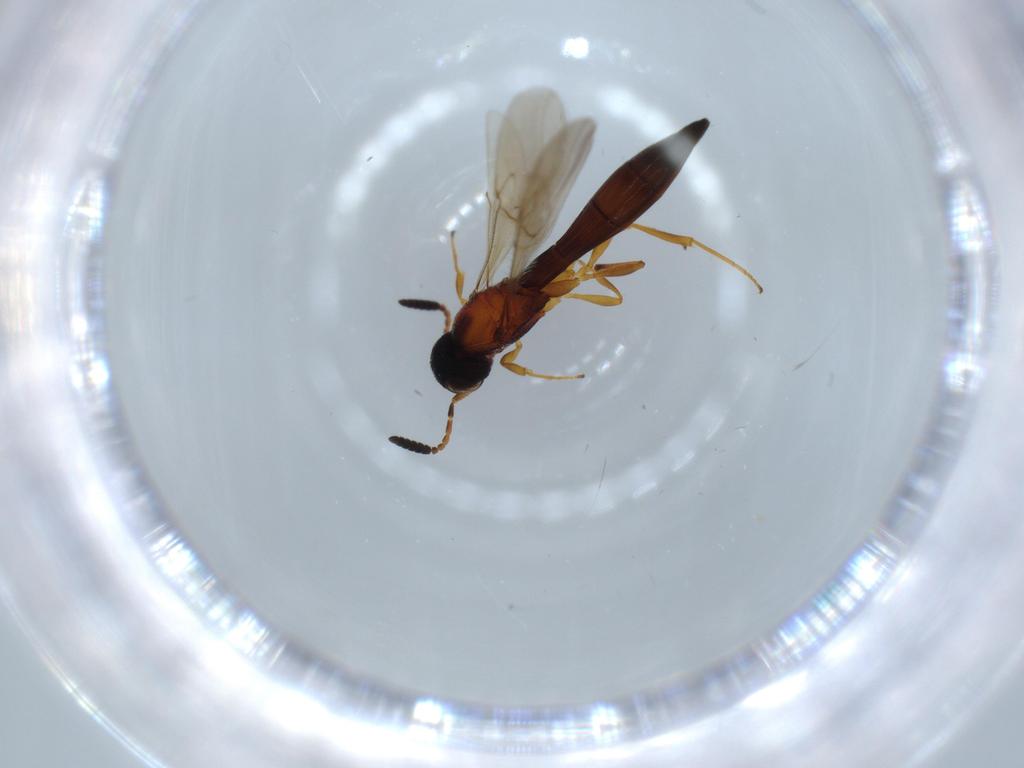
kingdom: Animalia
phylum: Arthropoda
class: Insecta
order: Hymenoptera
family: Scelionidae
